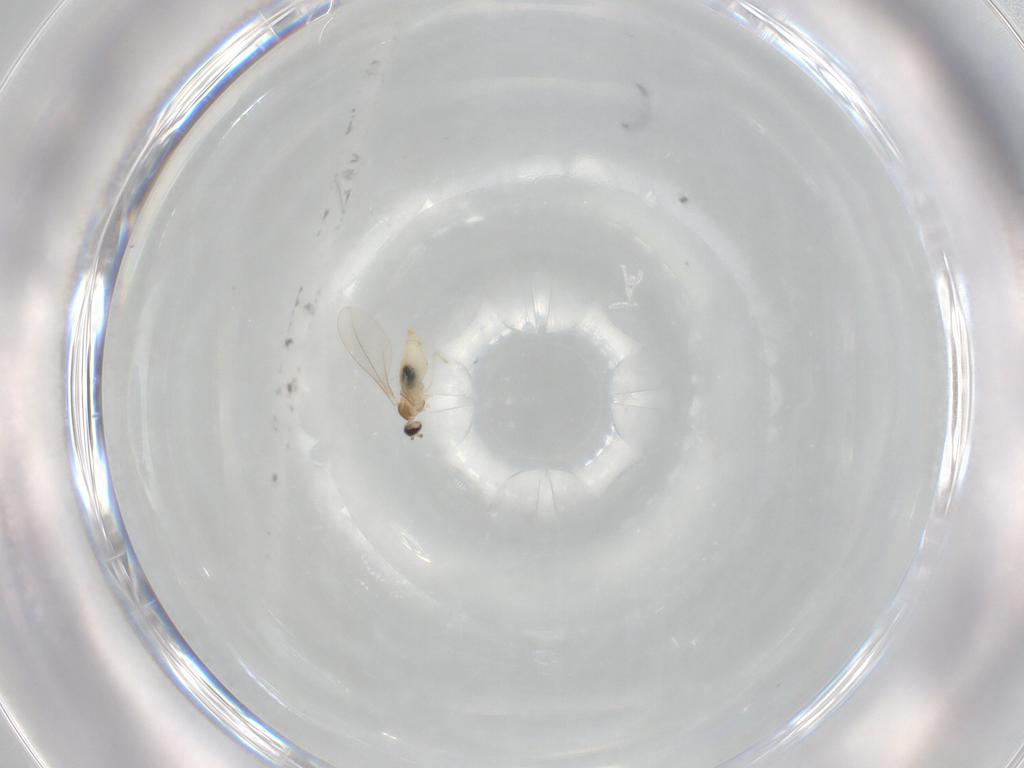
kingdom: Animalia
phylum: Arthropoda
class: Insecta
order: Diptera
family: Cecidomyiidae
